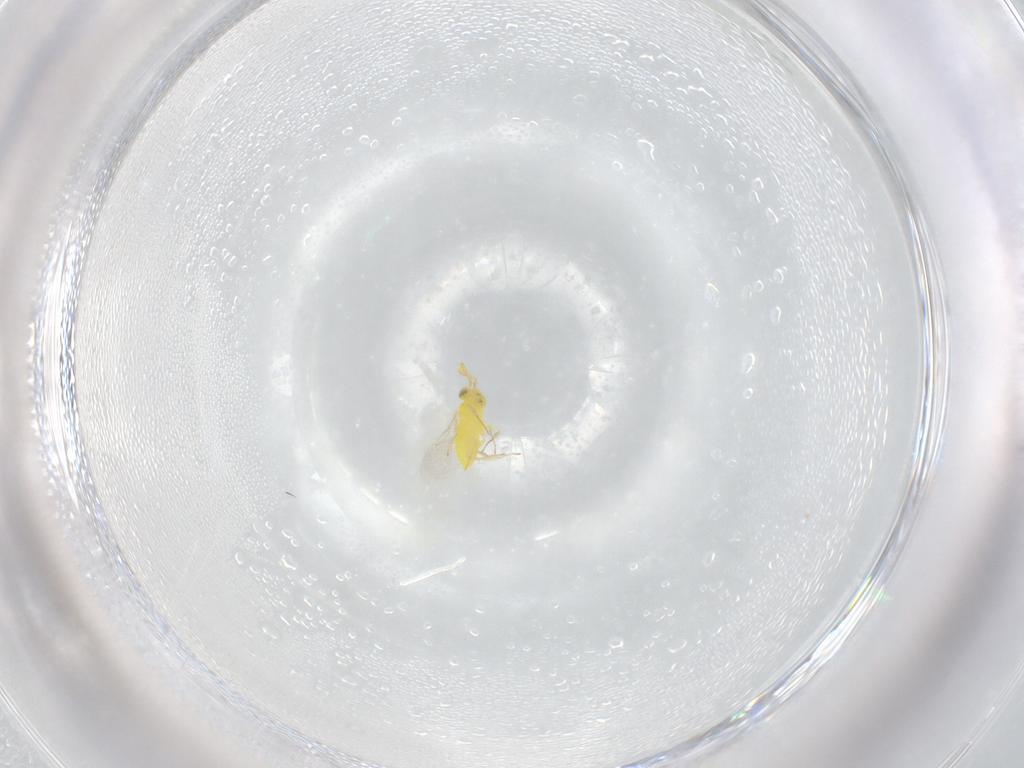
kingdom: Animalia
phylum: Arthropoda
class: Insecta
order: Hymenoptera
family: Aphelinidae
